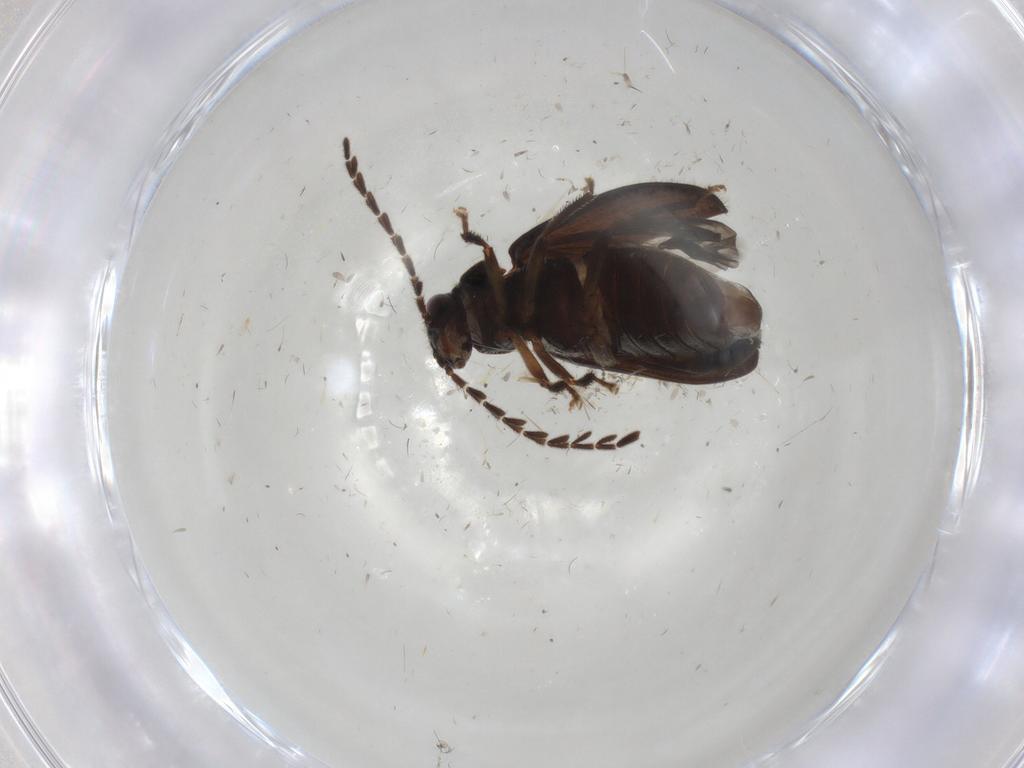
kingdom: Animalia
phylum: Arthropoda
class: Insecta
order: Coleoptera
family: Ptilodactylidae
